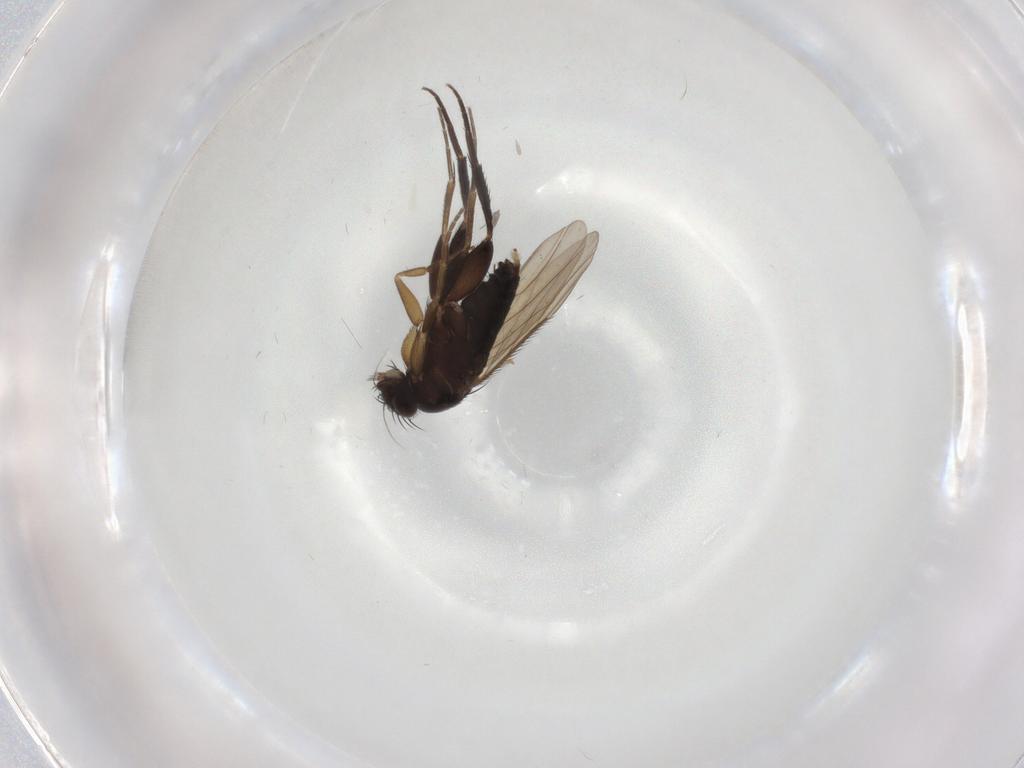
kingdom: Animalia
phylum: Arthropoda
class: Insecta
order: Diptera
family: Phoridae
